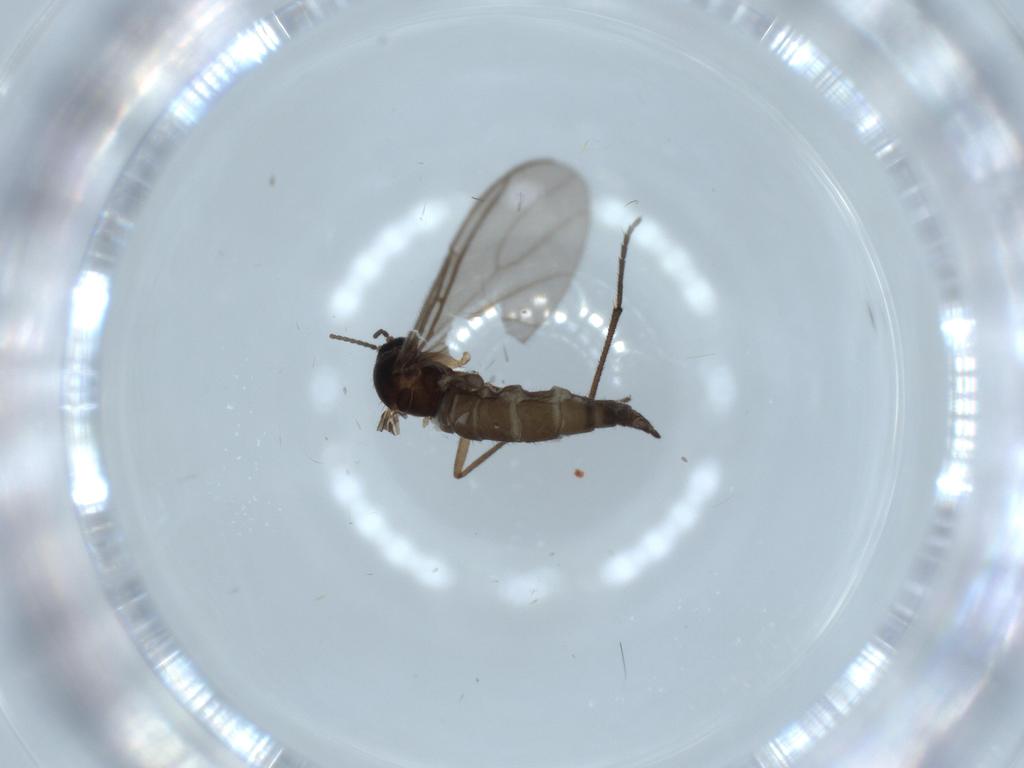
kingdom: Animalia
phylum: Arthropoda
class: Insecta
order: Diptera
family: Sciaridae
